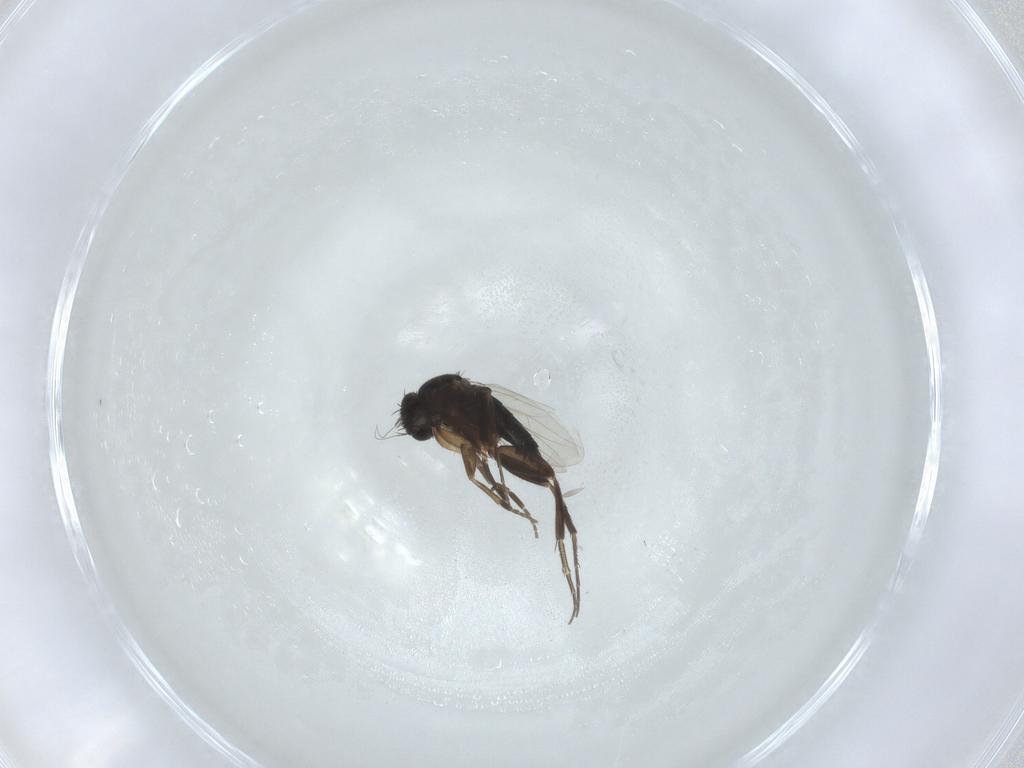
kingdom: Animalia
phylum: Arthropoda
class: Insecta
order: Diptera
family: Phoridae
